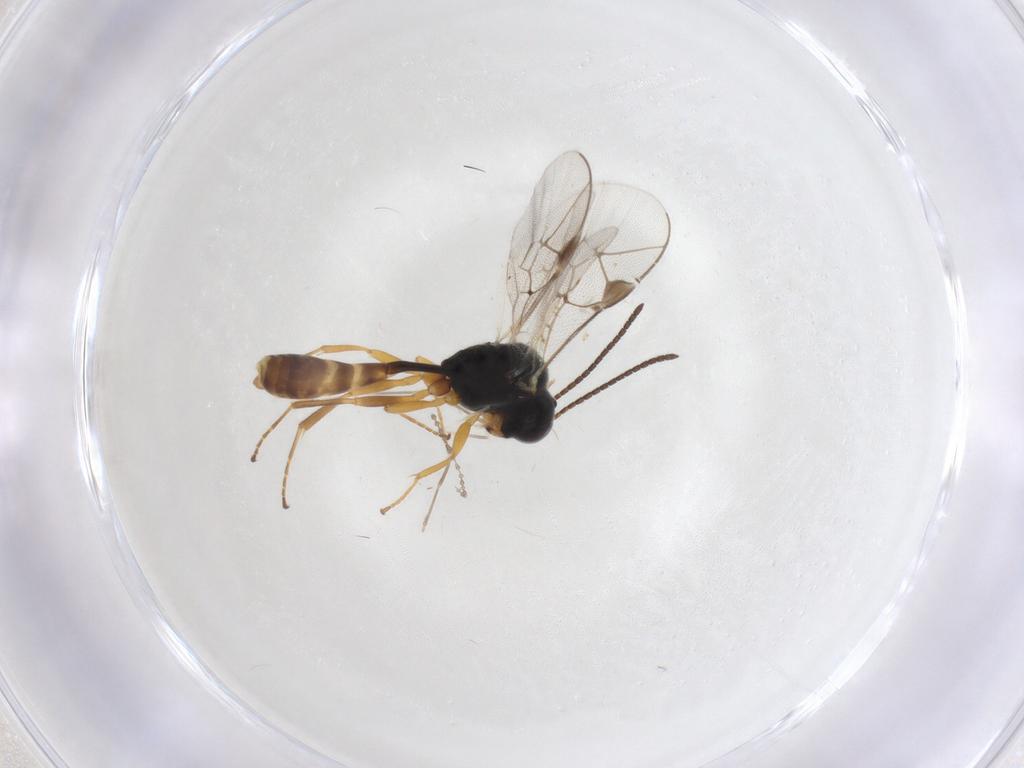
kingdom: Animalia
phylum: Arthropoda
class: Insecta
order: Hymenoptera
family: Ichneumonidae
